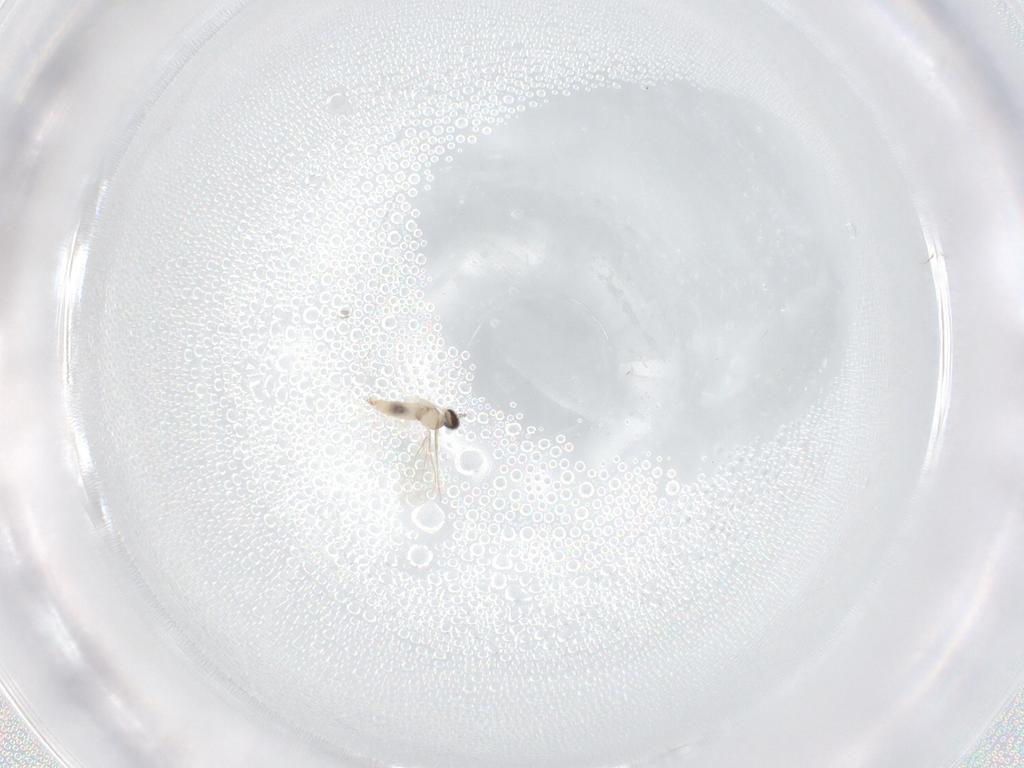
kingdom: Animalia
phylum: Arthropoda
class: Insecta
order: Diptera
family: Cecidomyiidae
